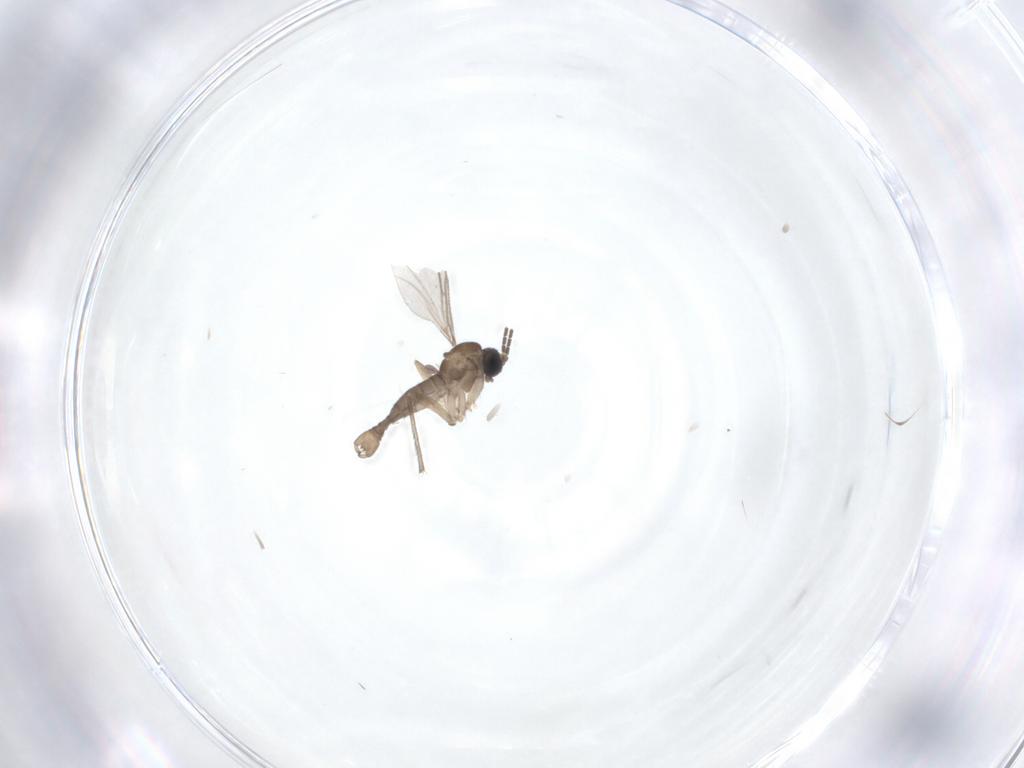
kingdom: Animalia
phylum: Arthropoda
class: Insecta
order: Diptera
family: Sciaridae
